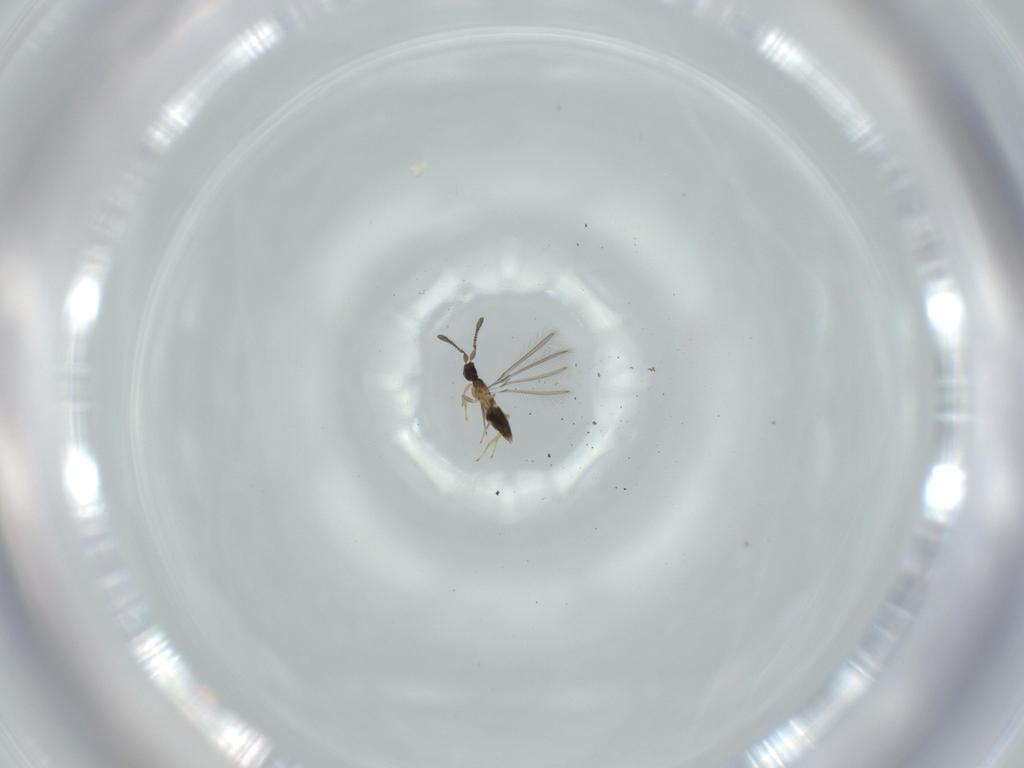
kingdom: Animalia
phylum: Arthropoda
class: Insecta
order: Hymenoptera
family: Mymaridae
